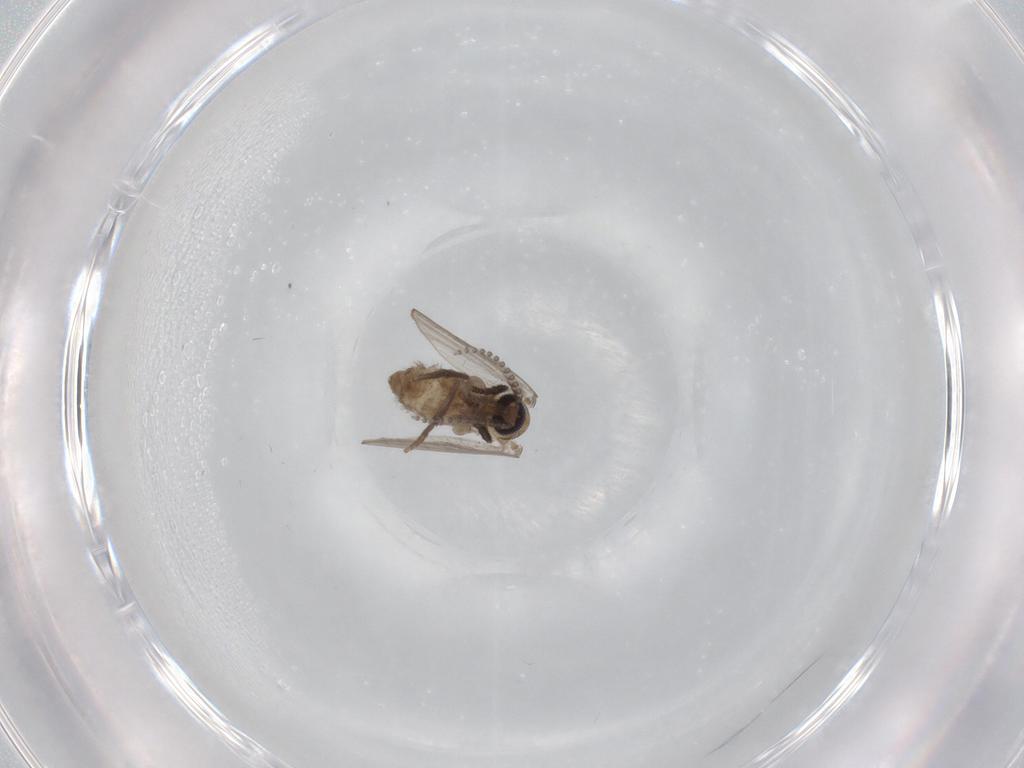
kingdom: Animalia
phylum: Arthropoda
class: Insecta
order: Diptera
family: Psychodidae
